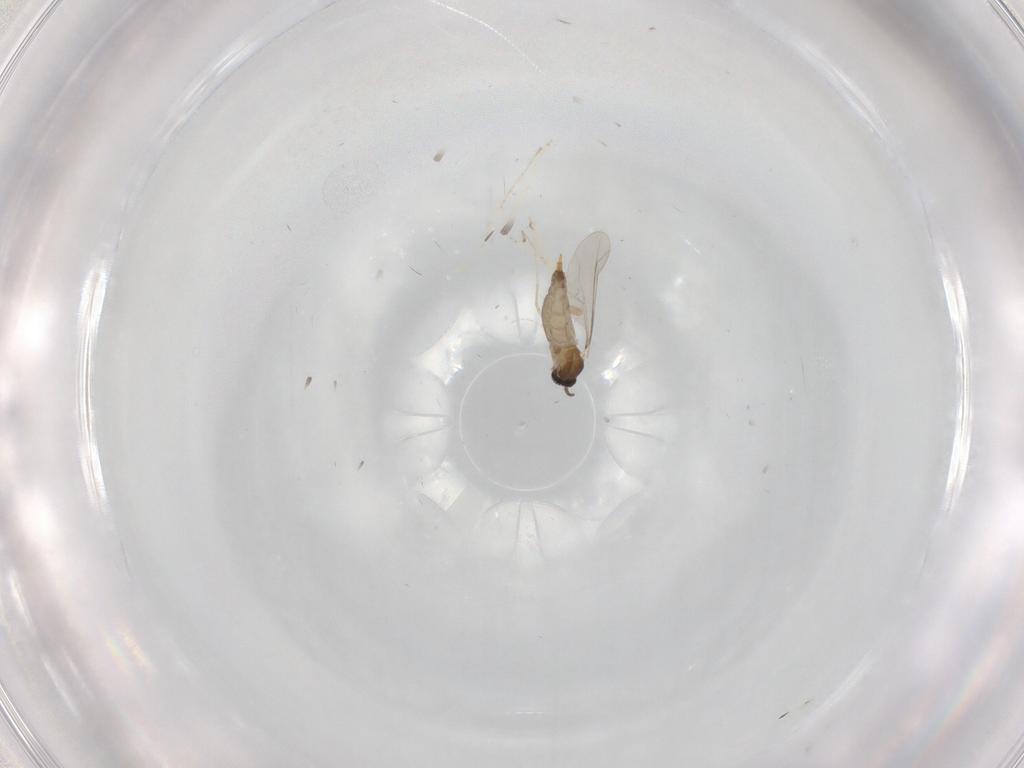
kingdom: Animalia
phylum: Arthropoda
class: Insecta
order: Diptera
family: Cecidomyiidae
